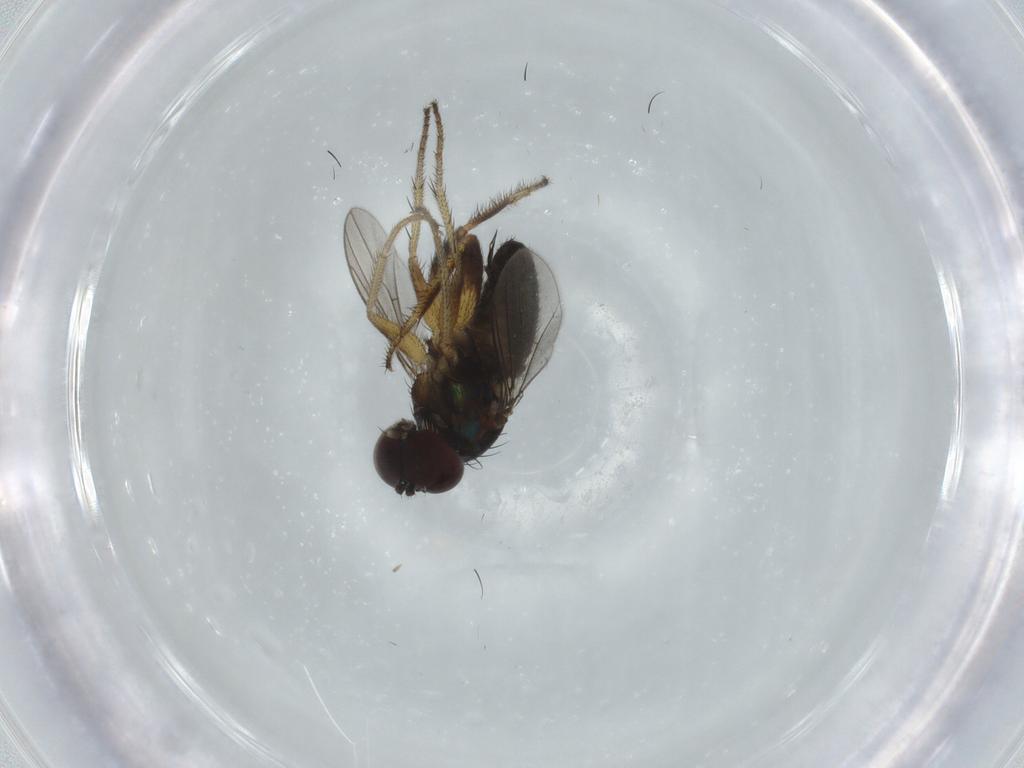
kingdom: Animalia
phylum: Arthropoda
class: Insecta
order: Diptera
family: Dolichopodidae
